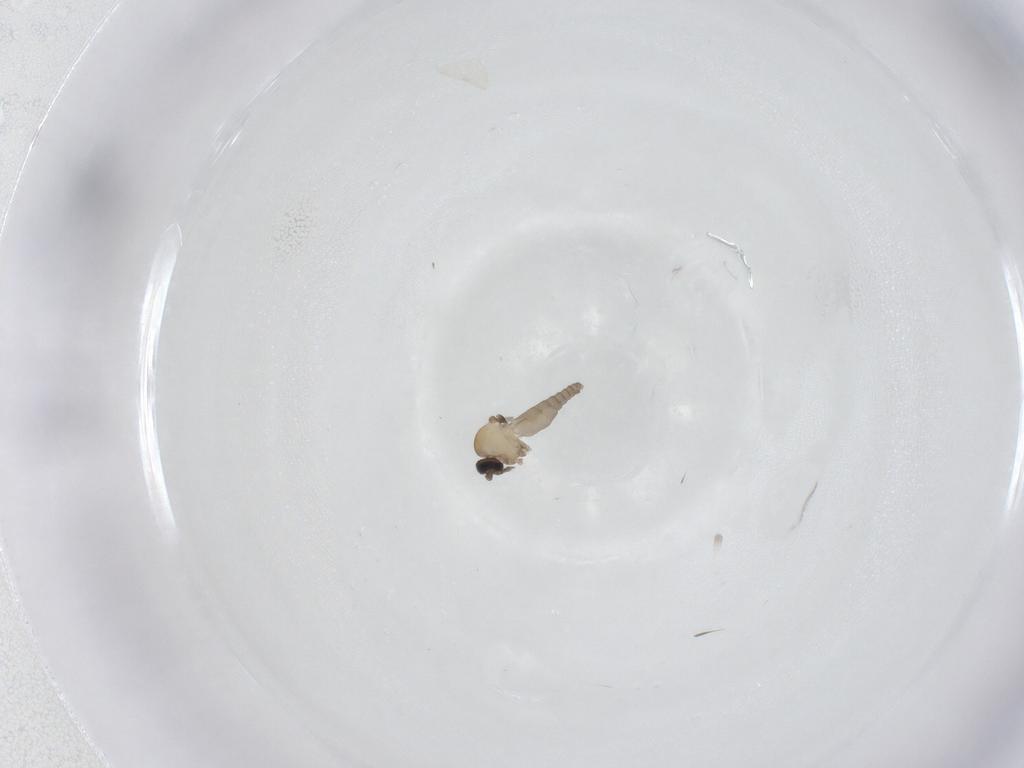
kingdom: Animalia
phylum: Arthropoda
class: Insecta
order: Diptera
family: Ceratopogonidae
